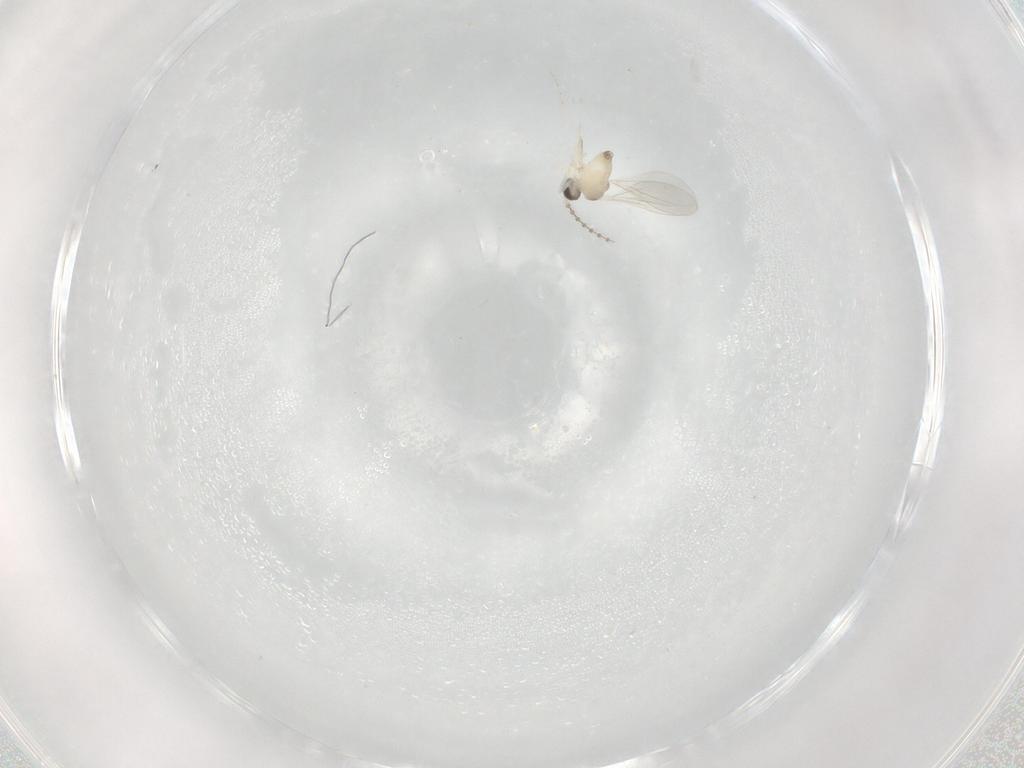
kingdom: Animalia
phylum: Arthropoda
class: Insecta
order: Diptera
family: Cecidomyiidae
